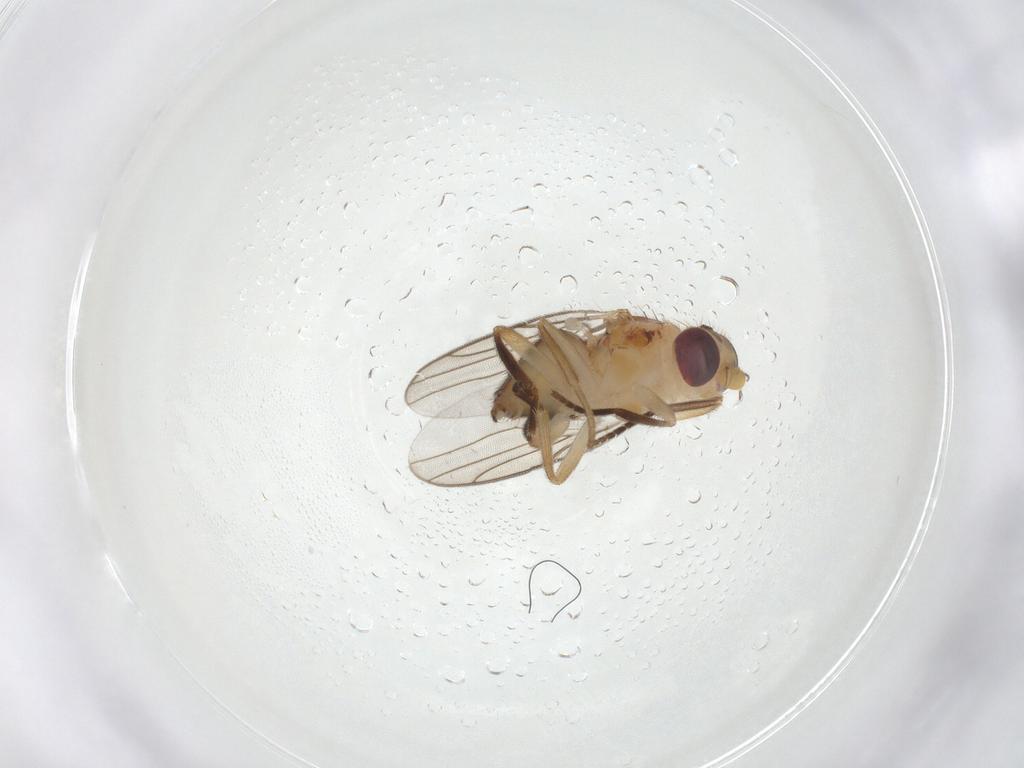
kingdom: Animalia
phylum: Arthropoda
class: Insecta
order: Diptera
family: Chloropidae
